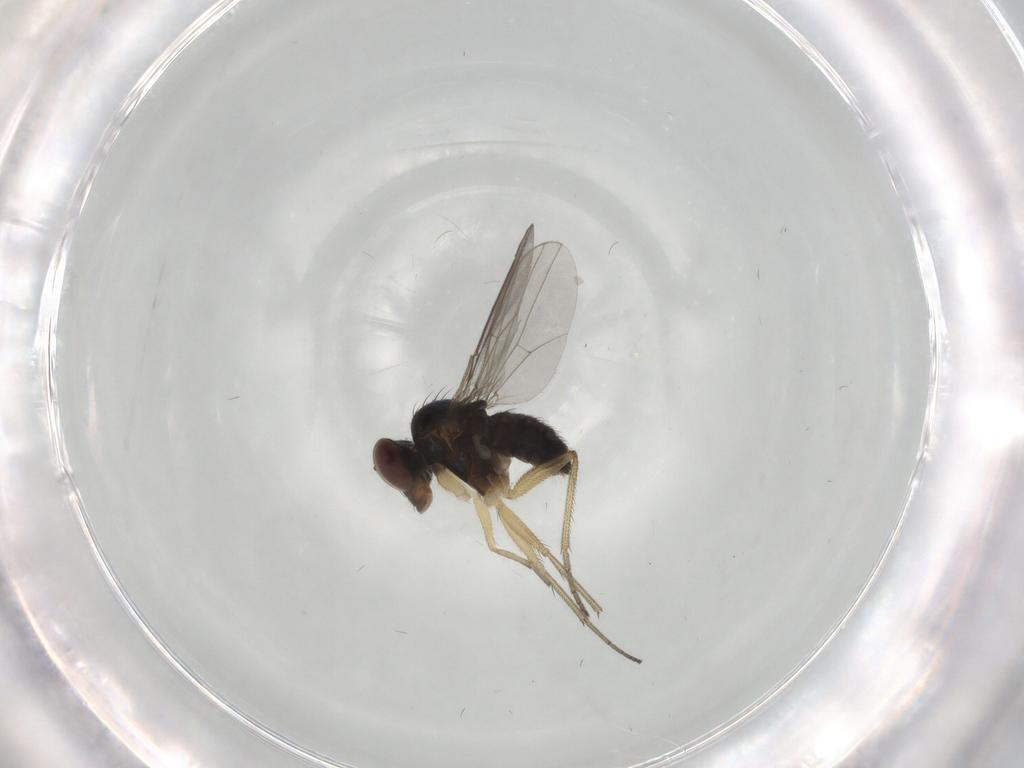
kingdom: Animalia
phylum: Arthropoda
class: Insecta
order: Diptera
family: Dolichopodidae
